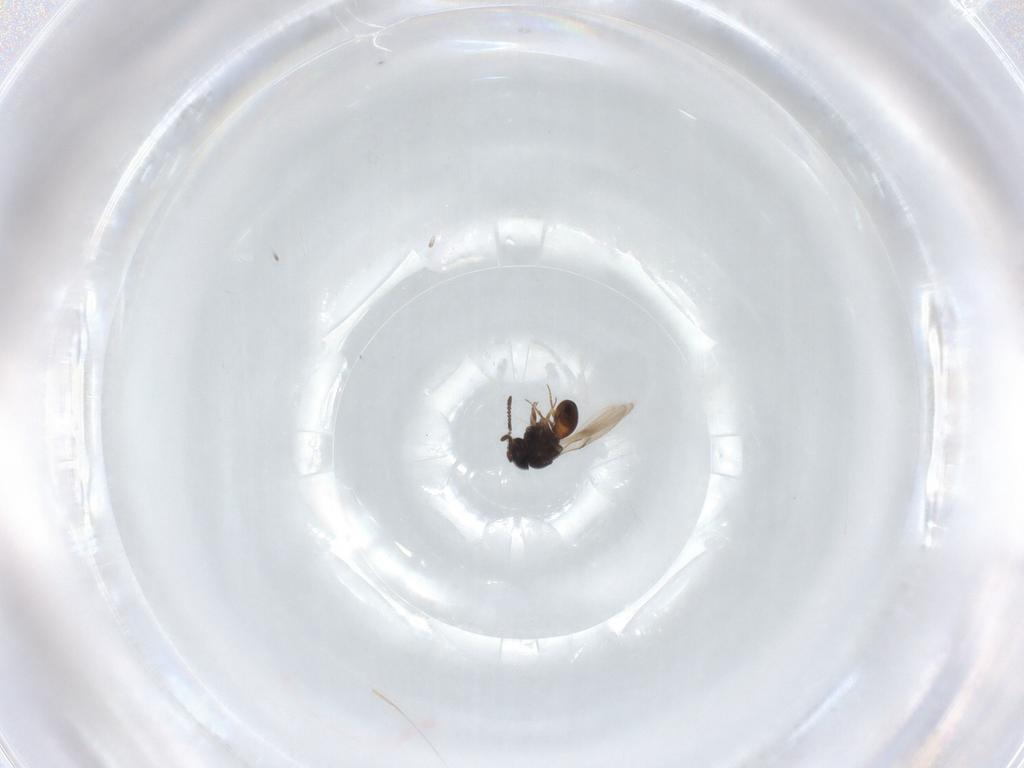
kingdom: Animalia
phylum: Arthropoda
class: Insecta
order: Hymenoptera
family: Scelionidae
